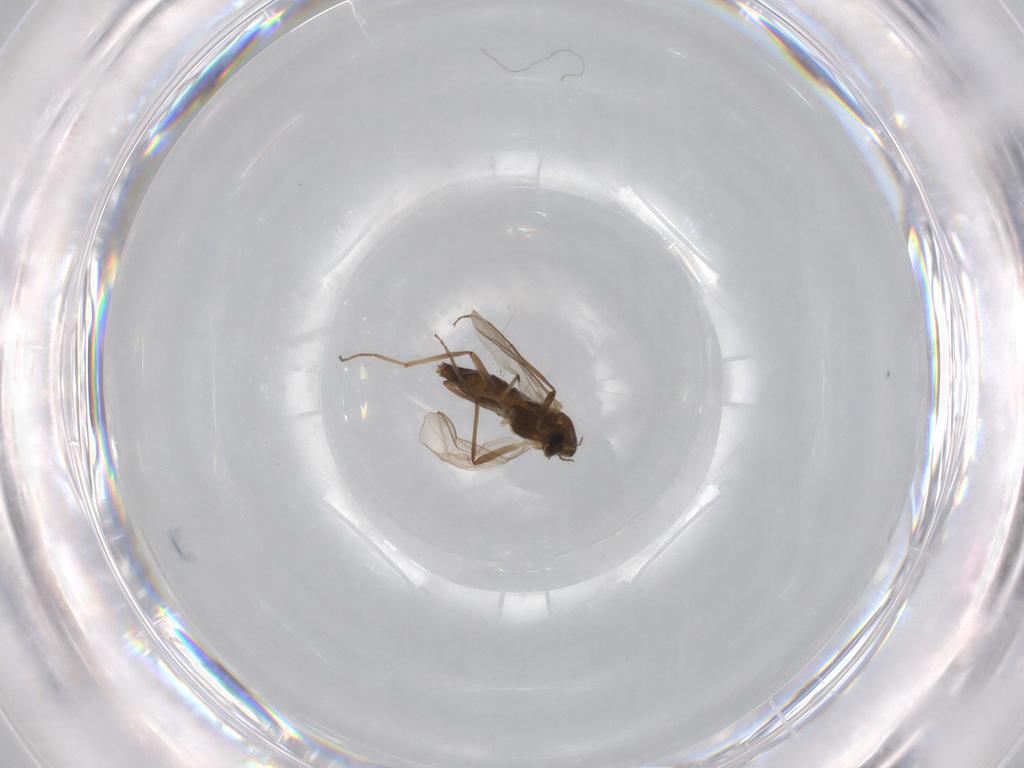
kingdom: Animalia
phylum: Arthropoda
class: Insecta
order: Diptera
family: Chironomidae
